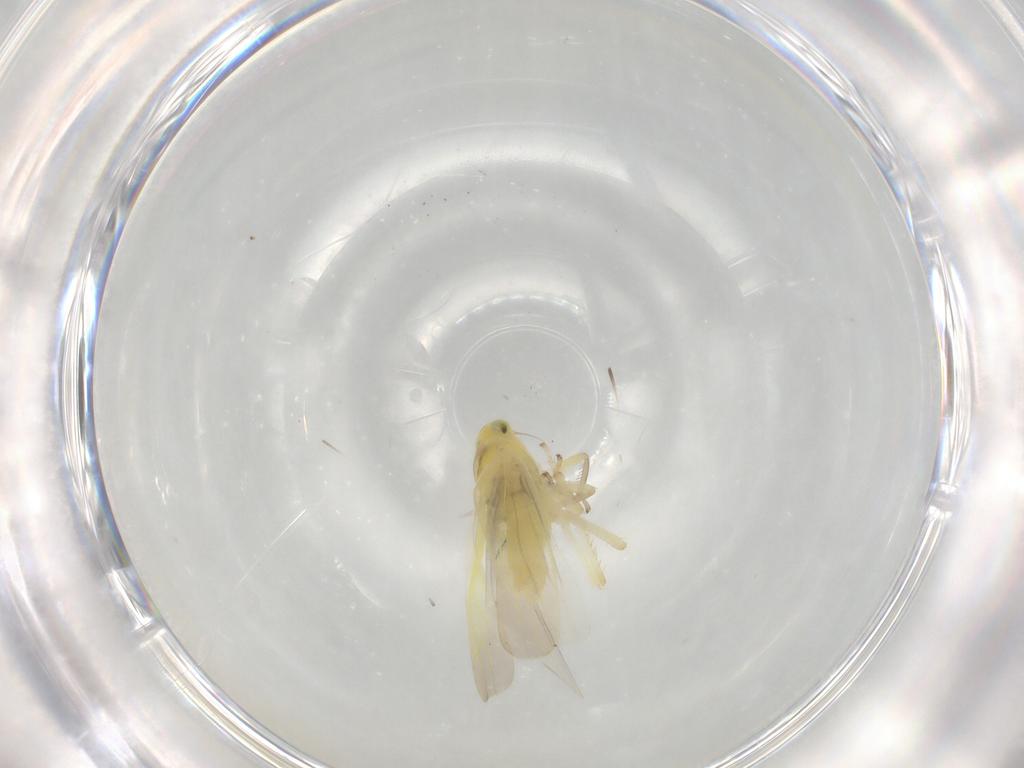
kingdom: Animalia
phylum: Arthropoda
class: Insecta
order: Hemiptera
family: Cicadellidae
